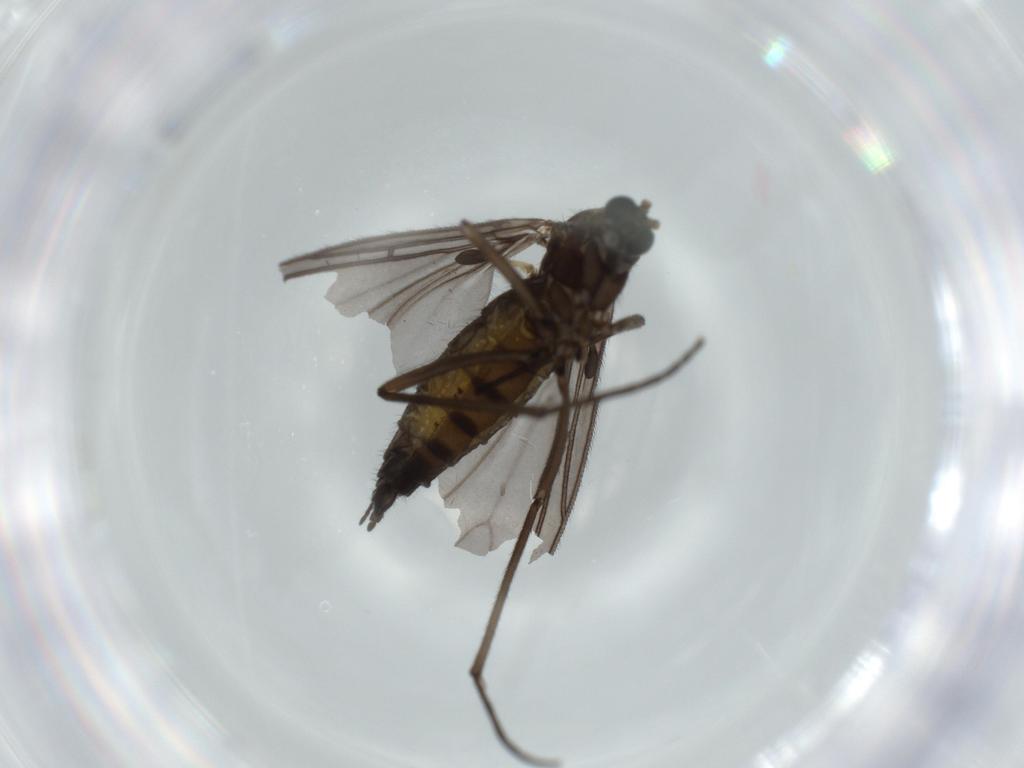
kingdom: Animalia
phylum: Arthropoda
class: Insecta
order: Diptera
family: Sciaridae
